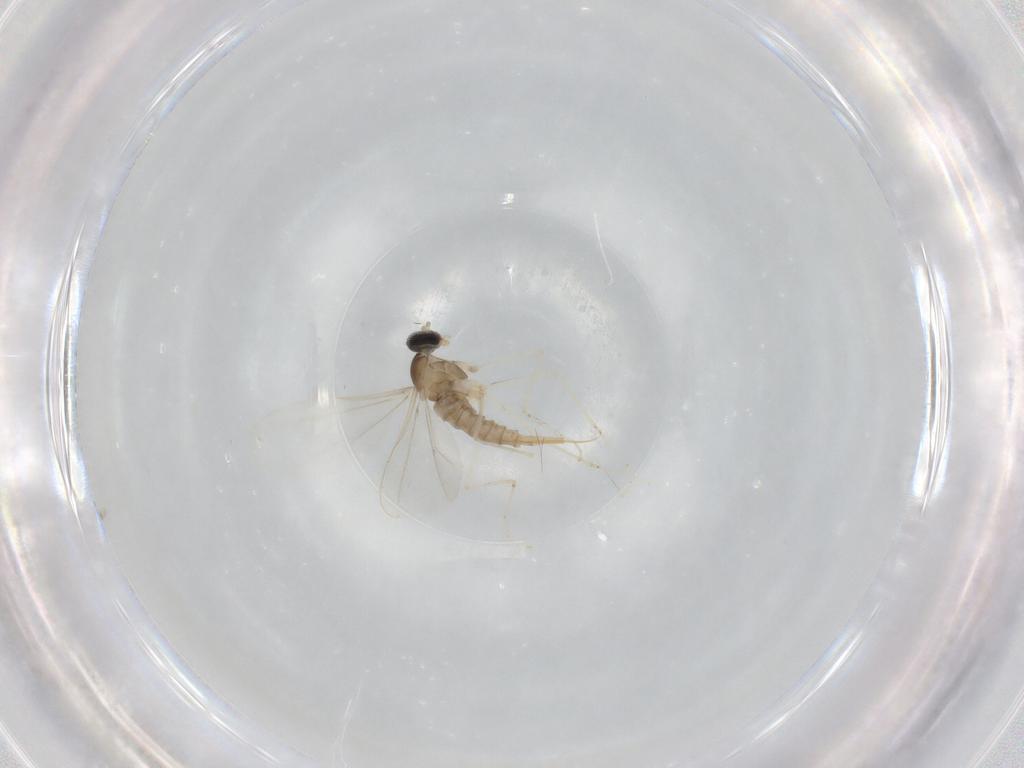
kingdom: Animalia
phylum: Arthropoda
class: Insecta
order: Diptera
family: Cecidomyiidae
